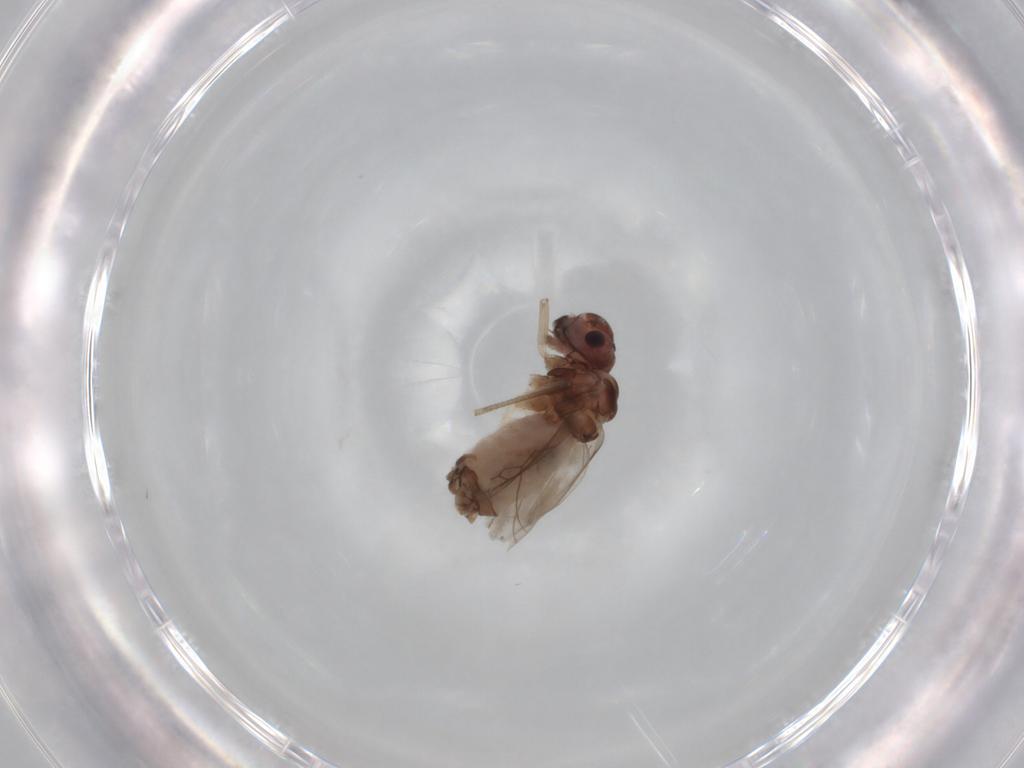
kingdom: Animalia
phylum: Arthropoda
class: Insecta
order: Psocodea
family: Peripsocidae
